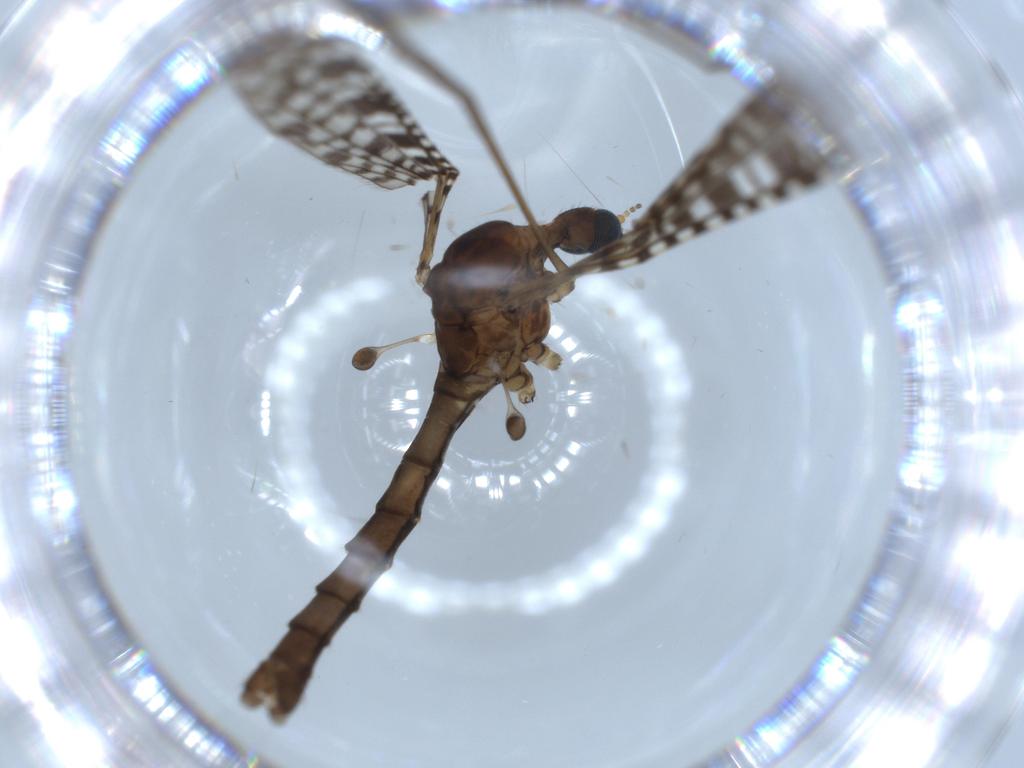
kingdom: Animalia
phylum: Arthropoda
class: Insecta
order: Diptera
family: Limoniidae
